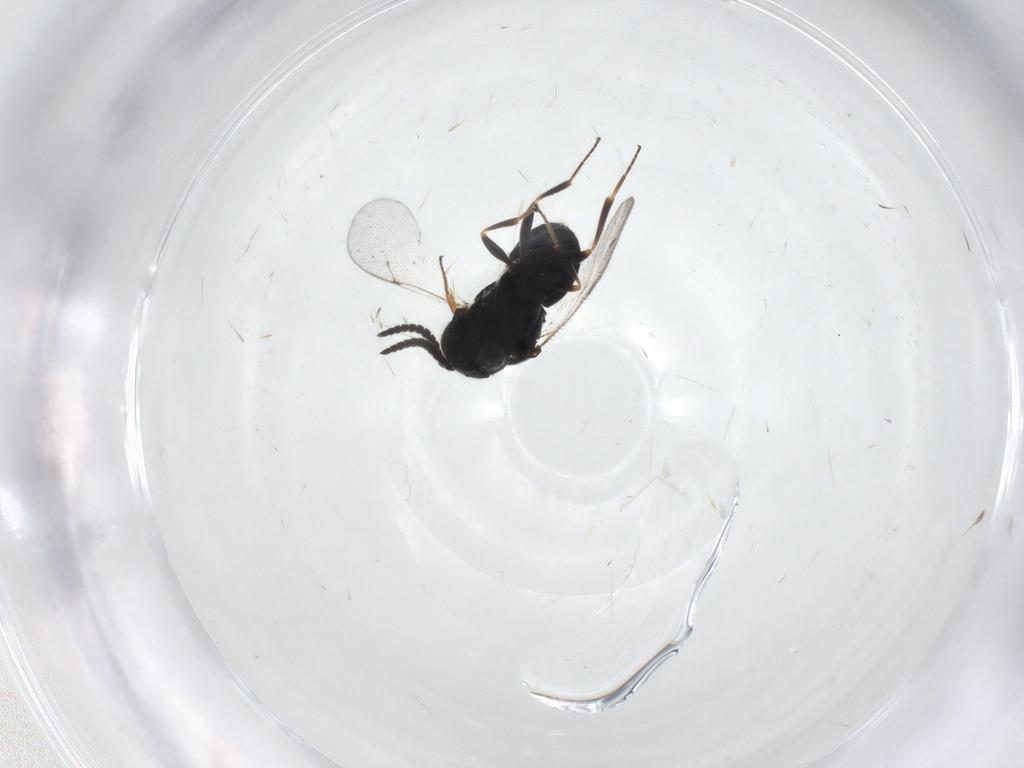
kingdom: Animalia
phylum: Arthropoda
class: Insecta
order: Hymenoptera
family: Scelionidae
